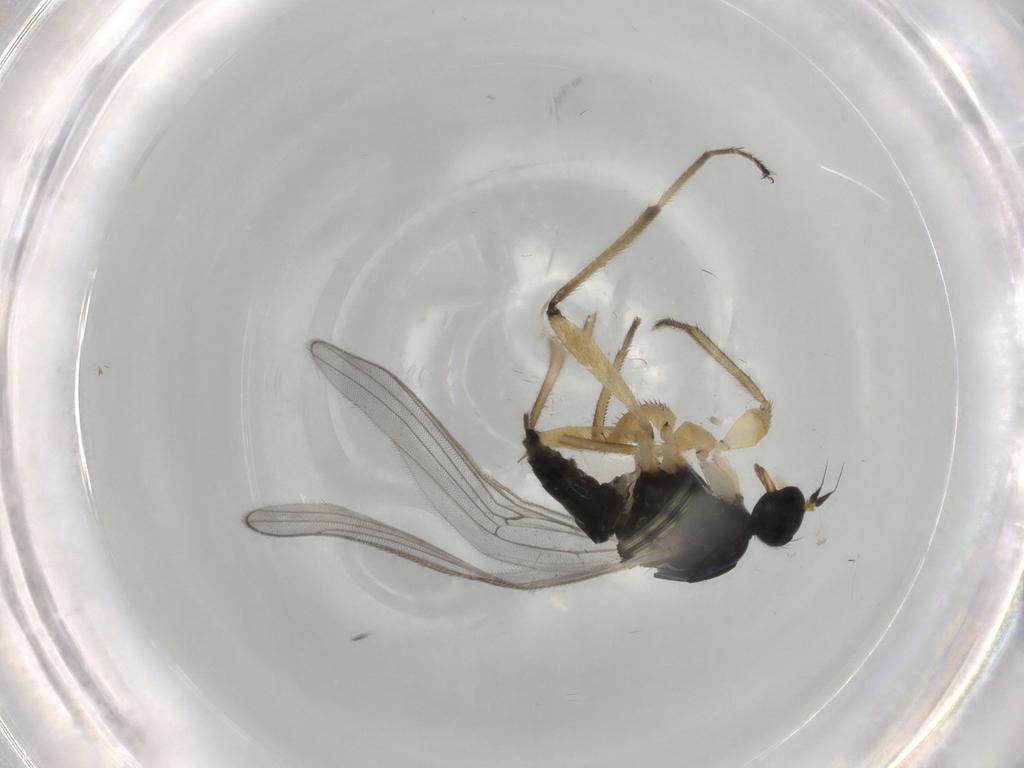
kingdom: Animalia
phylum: Arthropoda
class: Insecta
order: Diptera
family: Hybotidae
